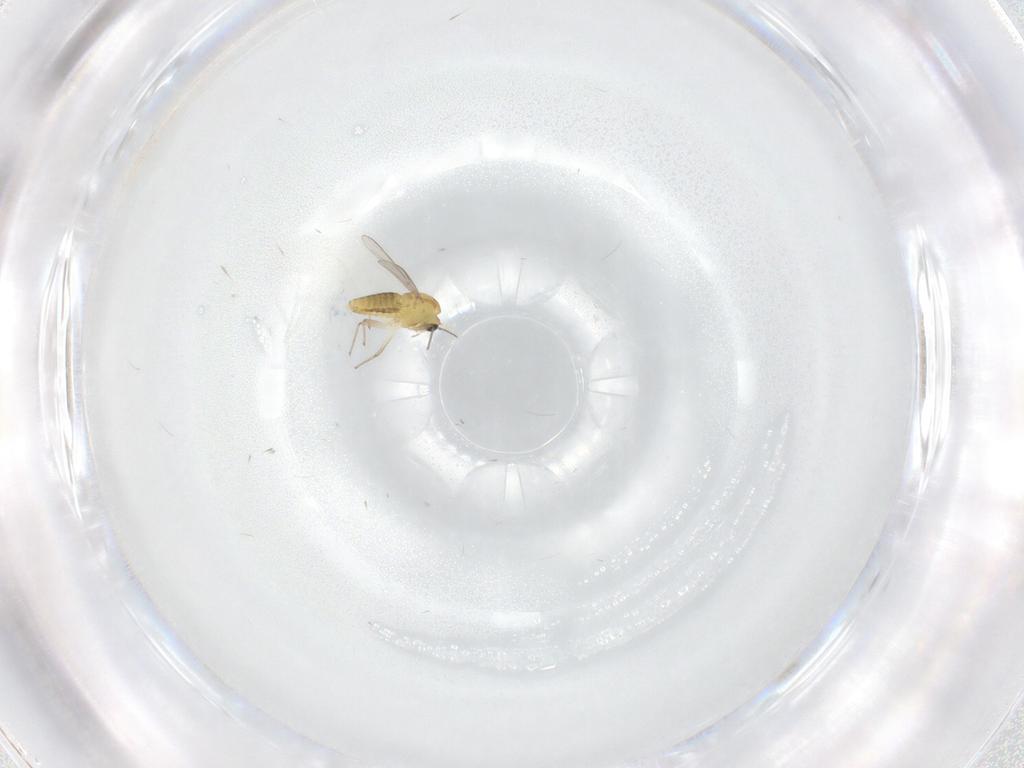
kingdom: Animalia
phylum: Arthropoda
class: Insecta
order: Diptera
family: Chironomidae
